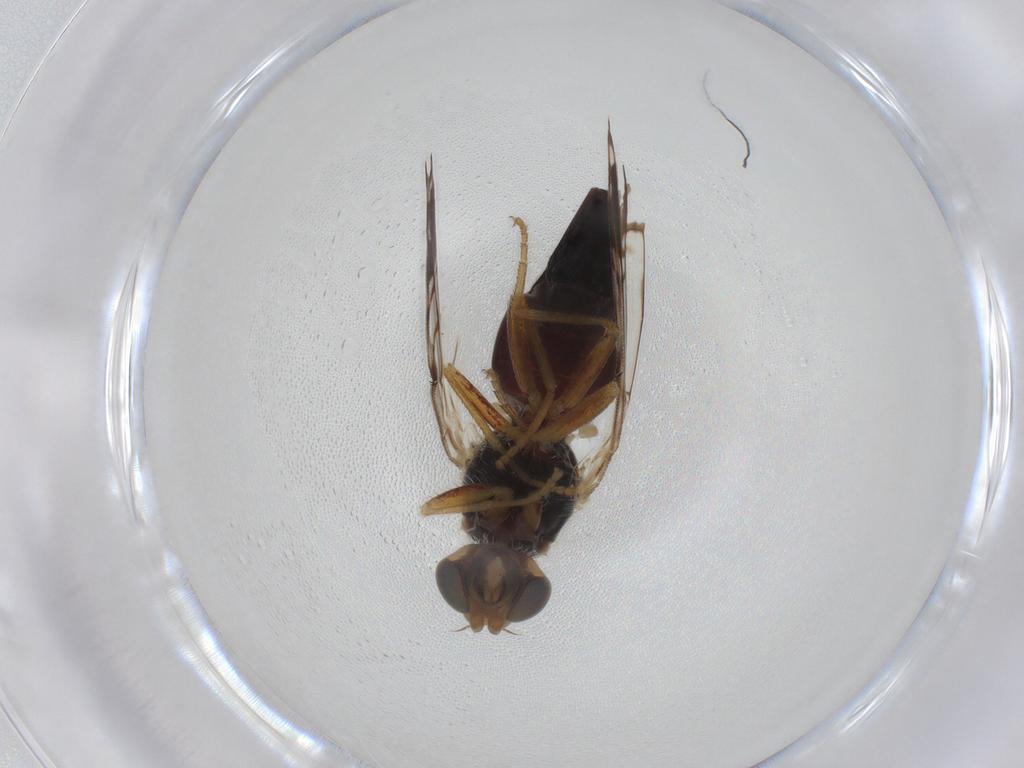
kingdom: Animalia
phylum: Arthropoda
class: Insecta
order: Diptera
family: Tephritidae
